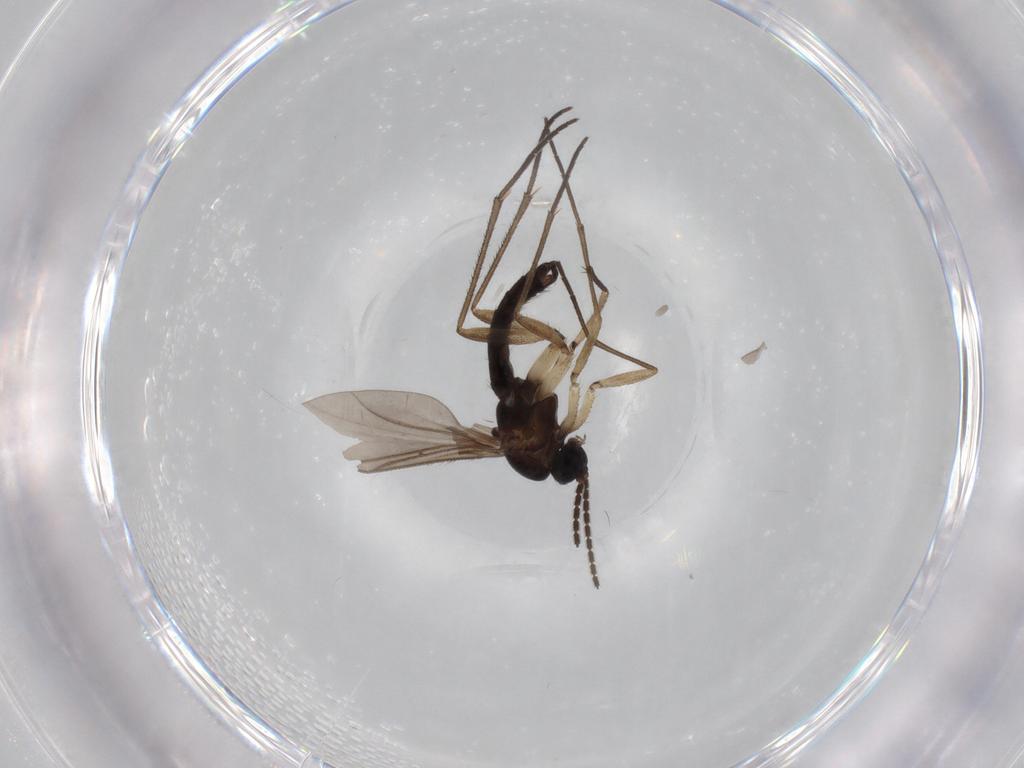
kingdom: Animalia
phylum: Arthropoda
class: Insecta
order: Diptera
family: Sciaridae
